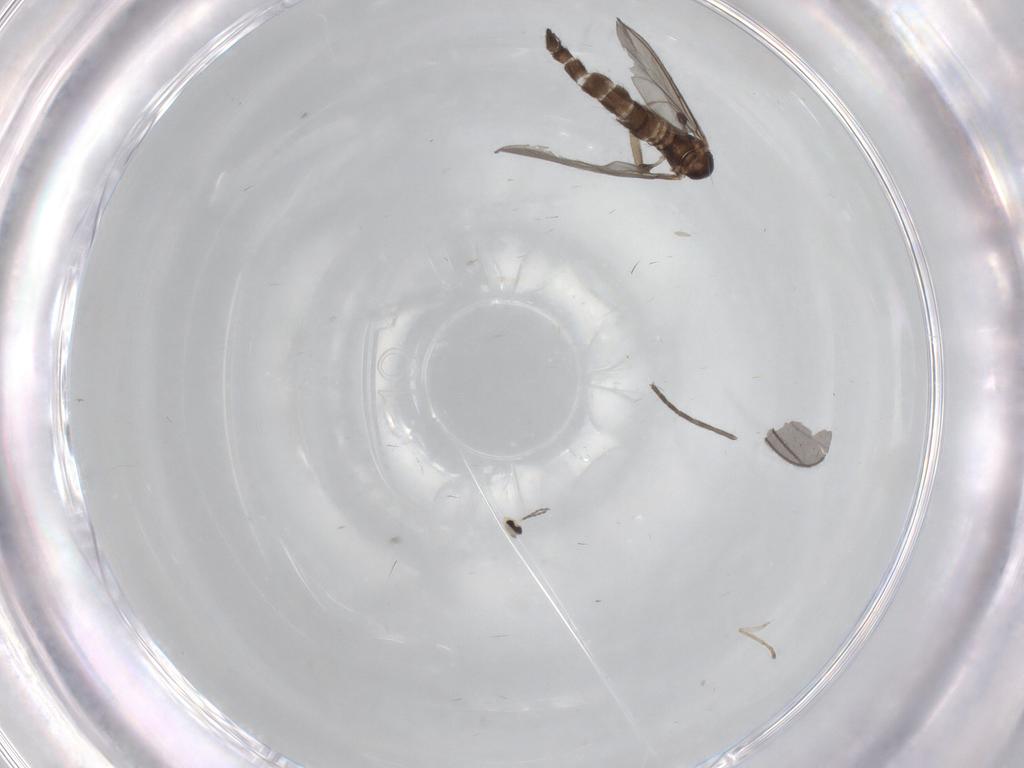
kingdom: Animalia
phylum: Arthropoda
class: Insecta
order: Diptera
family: Cecidomyiidae
